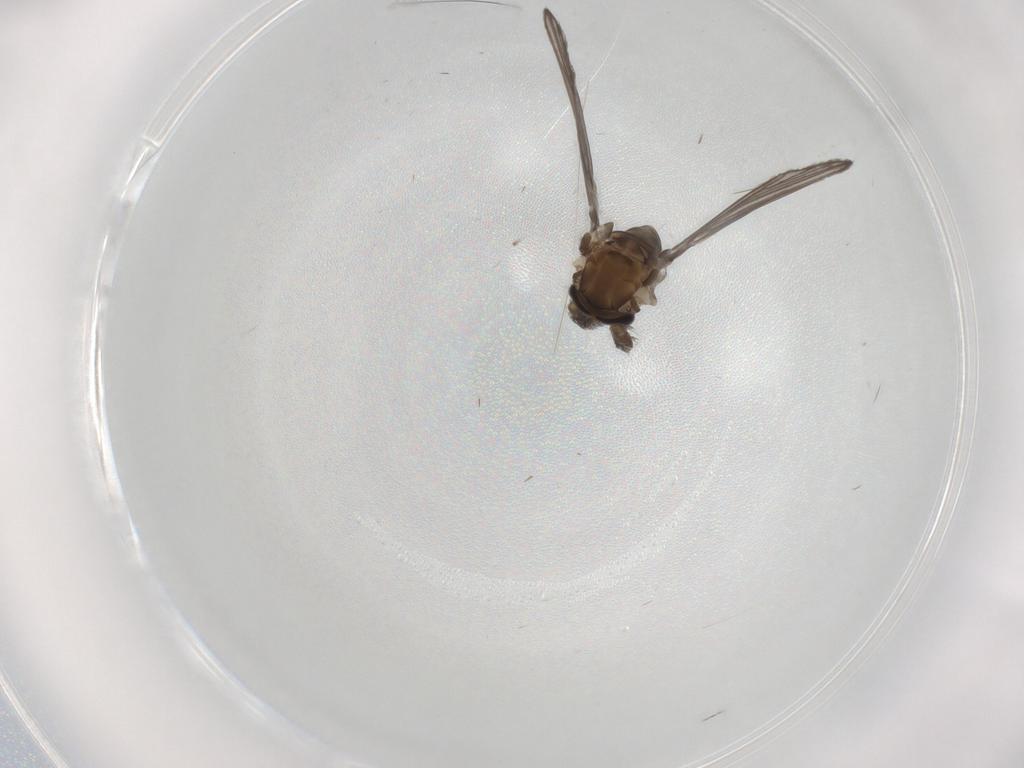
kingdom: Animalia
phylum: Arthropoda
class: Insecta
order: Diptera
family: Psychodidae
